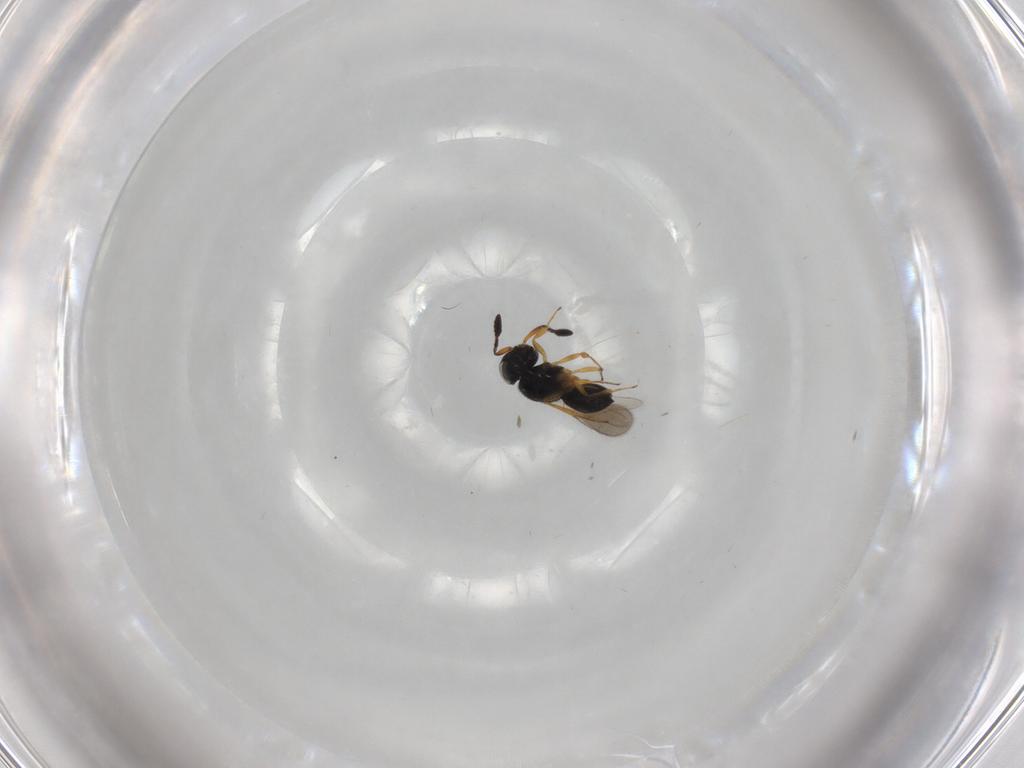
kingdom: Animalia
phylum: Arthropoda
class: Insecta
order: Hymenoptera
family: Scelionidae
